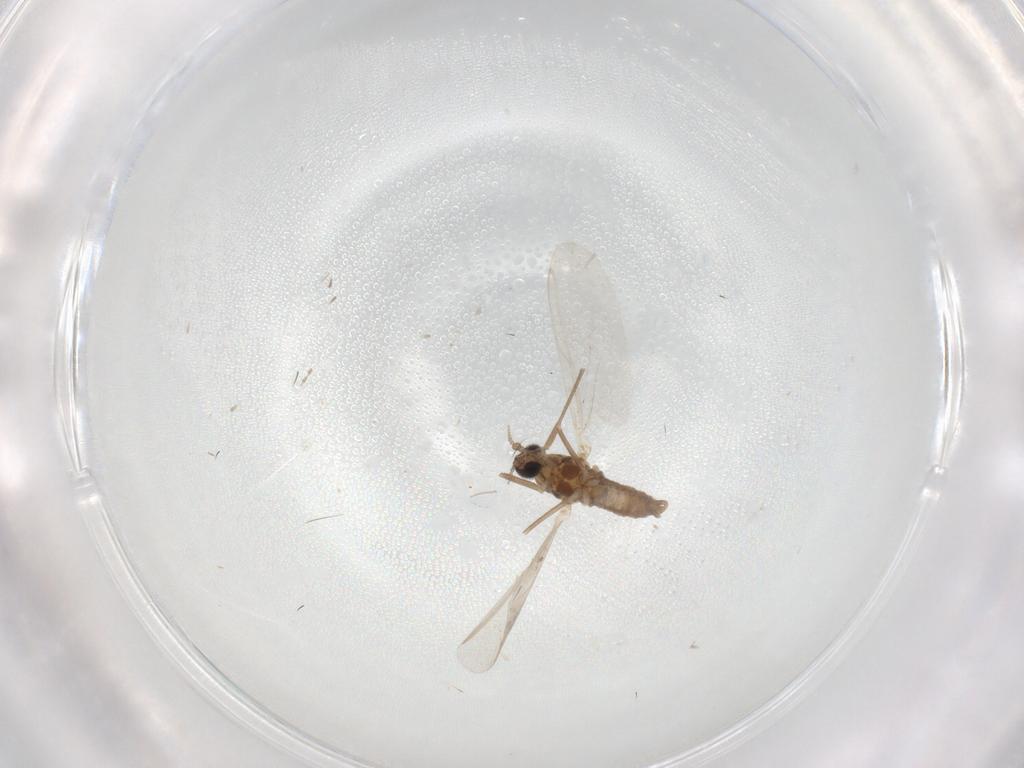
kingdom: Animalia
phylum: Arthropoda
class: Insecta
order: Diptera
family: Cecidomyiidae
